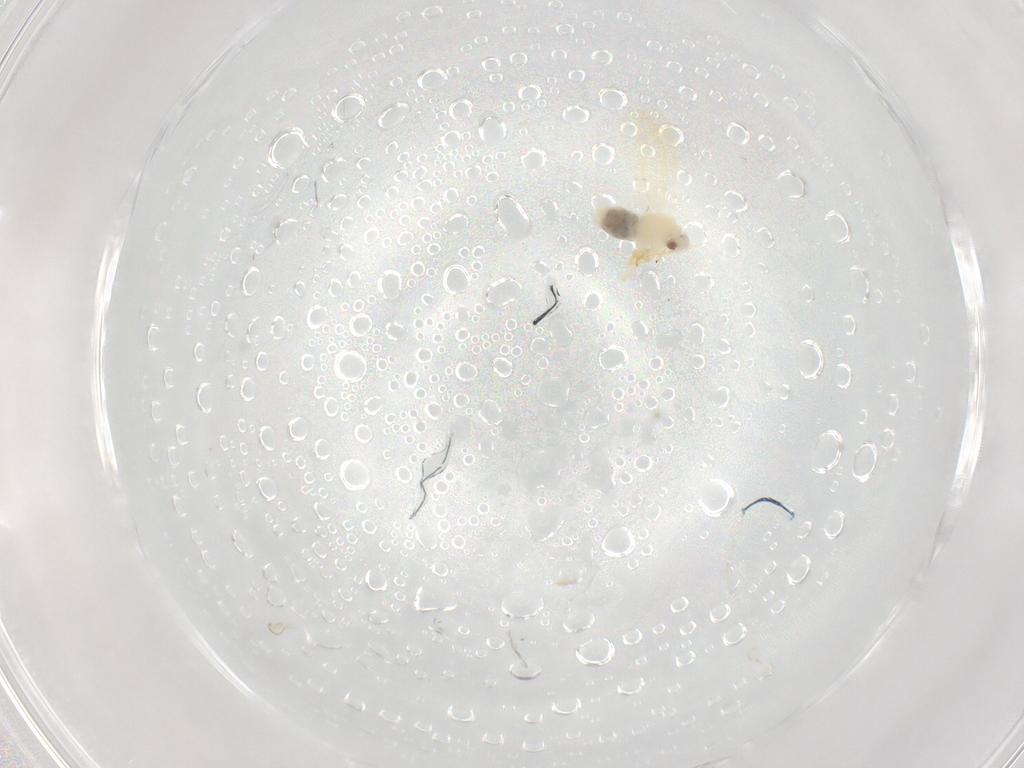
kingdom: Animalia
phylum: Arthropoda
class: Insecta
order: Hemiptera
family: Aleyrodidae
